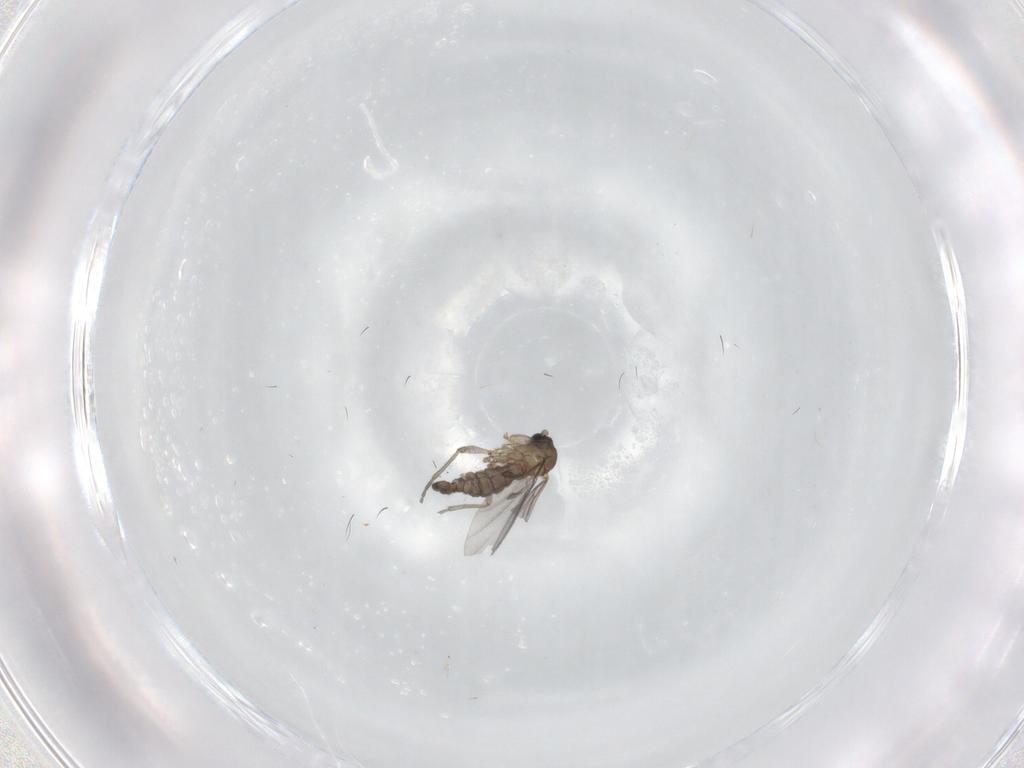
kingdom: Animalia
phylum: Arthropoda
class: Insecta
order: Diptera
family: Sciaridae
